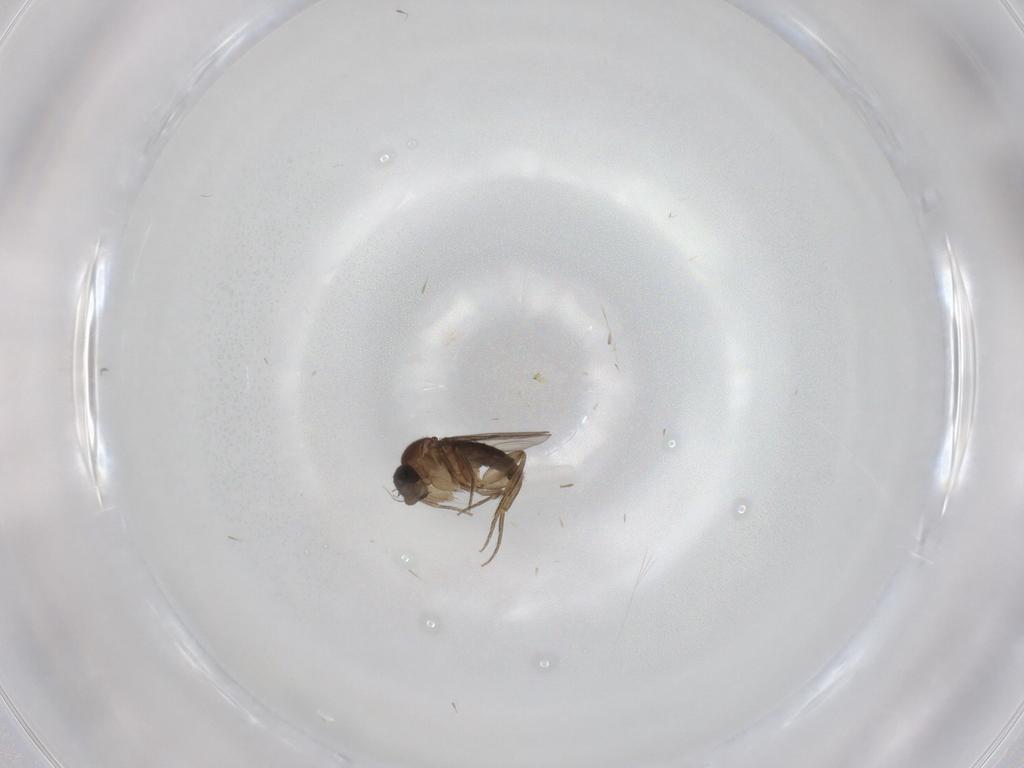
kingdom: Animalia
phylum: Arthropoda
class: Insecta
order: Diptera
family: Phoridae
